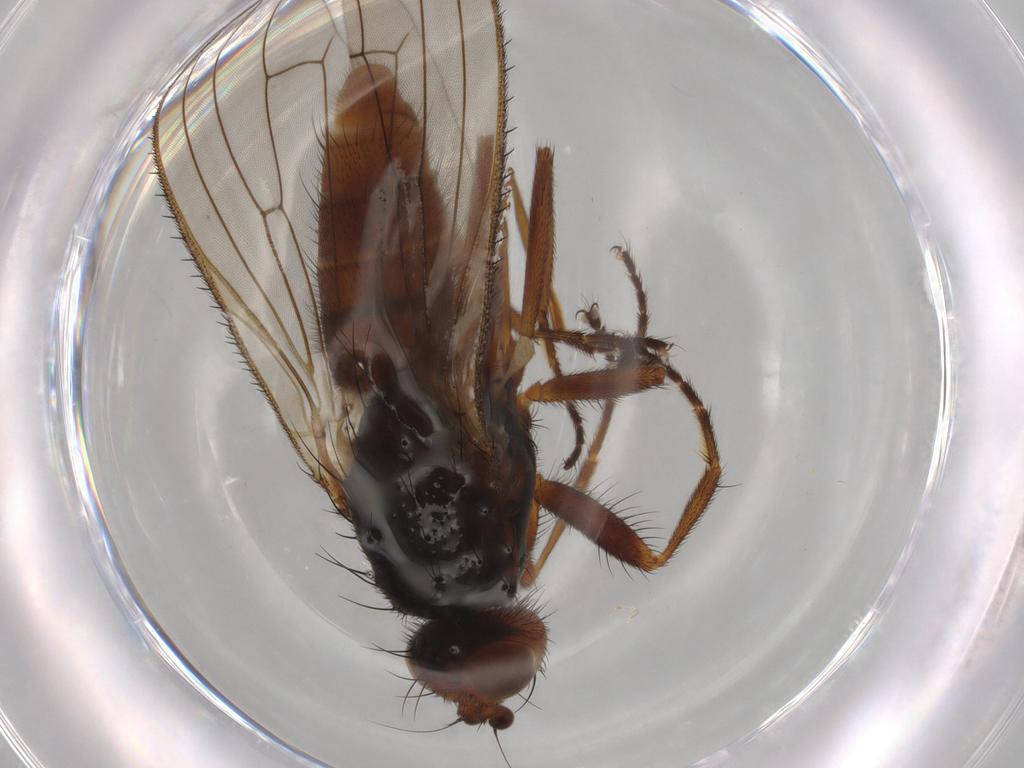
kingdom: Animalia
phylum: Arthropoda
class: Insecta
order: Diptera
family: Heleomyzidae
